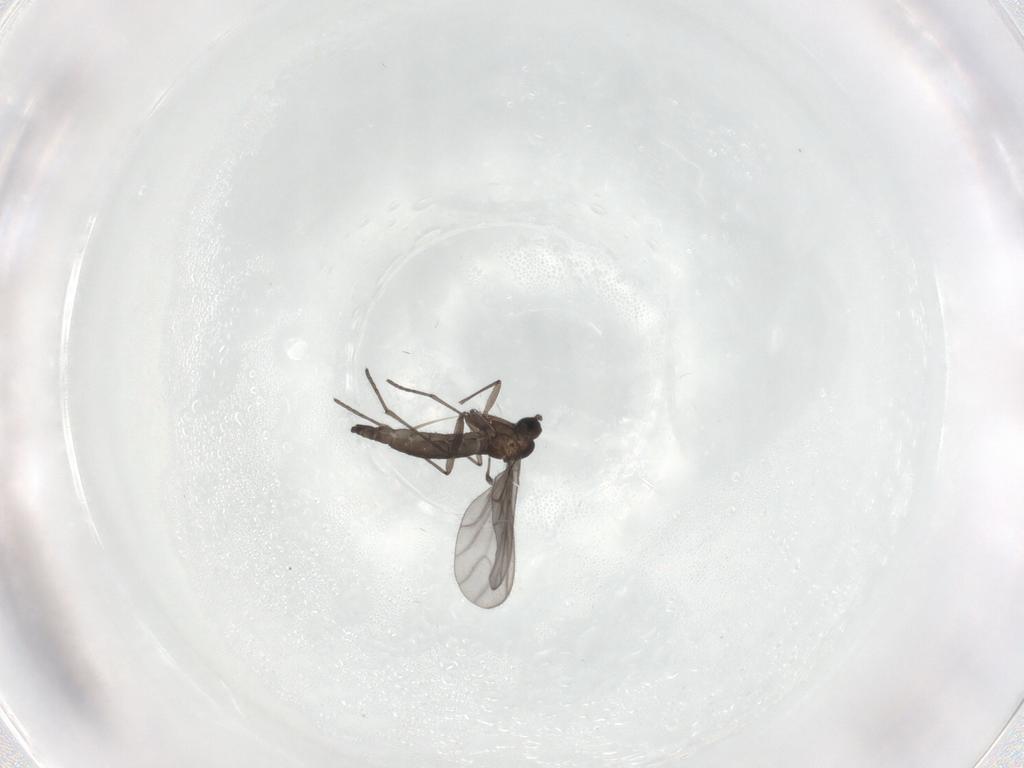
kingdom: Animalia
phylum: Arthropoda
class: Insecta
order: Diptera
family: Sciaridae
